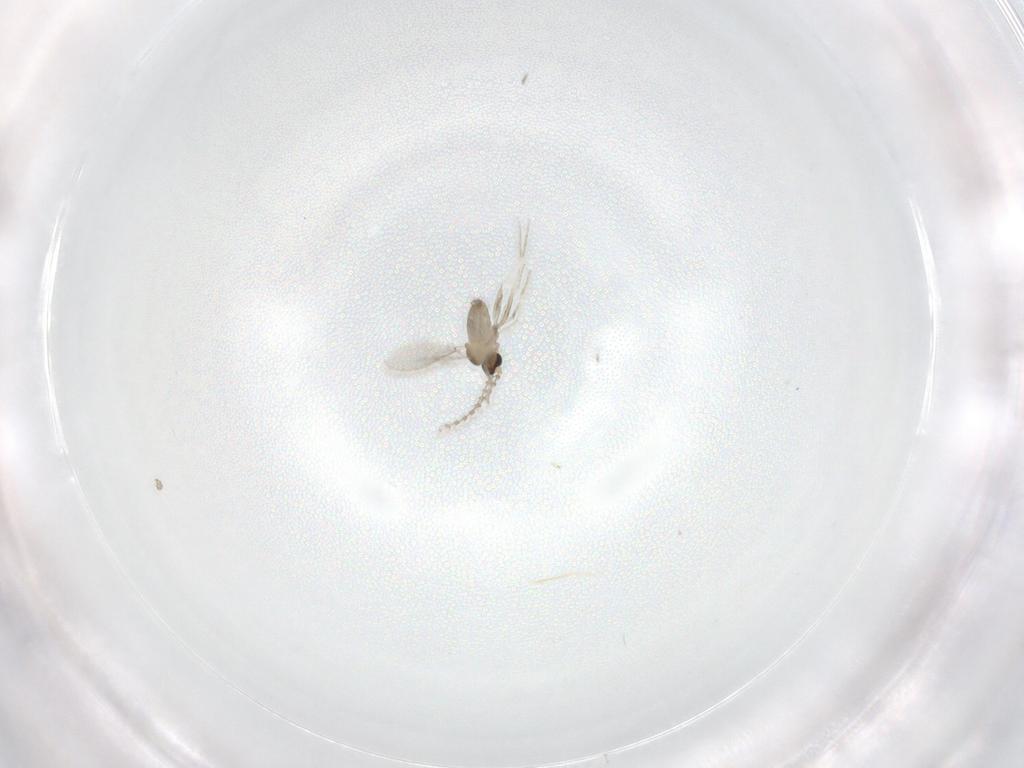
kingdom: Animalia
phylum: Arthropoda
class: Insecta
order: Diptera
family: Cecidomyiidae
